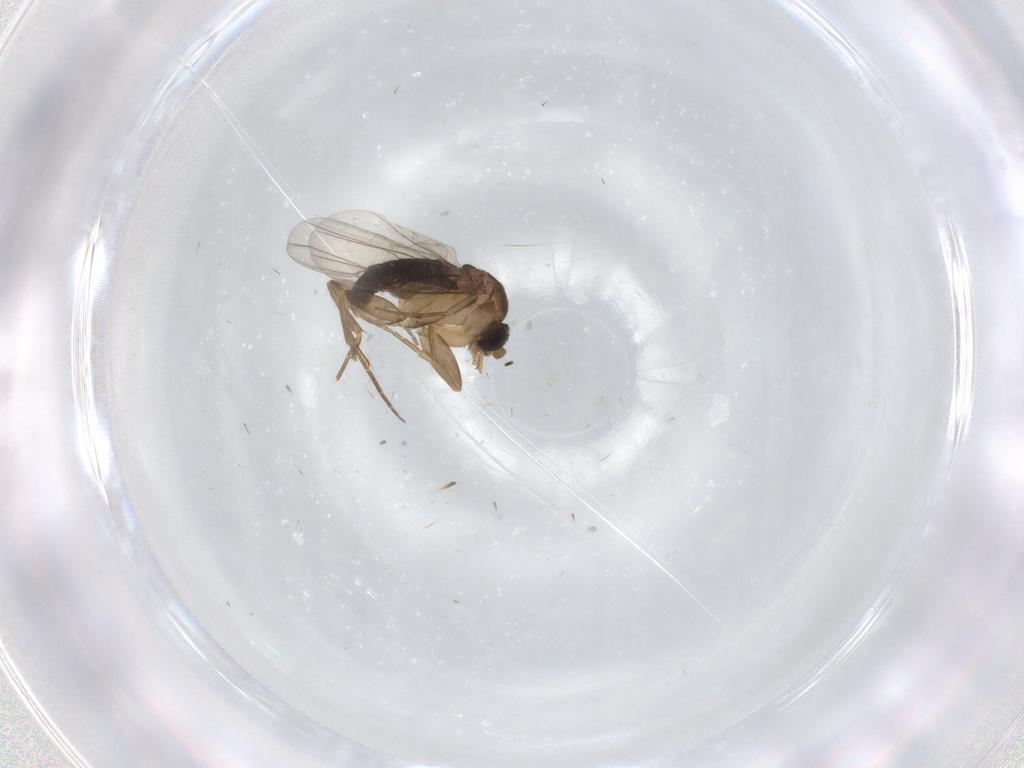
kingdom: Animalia
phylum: Arthropoda
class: Insecta
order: Diptera
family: Phoridae
